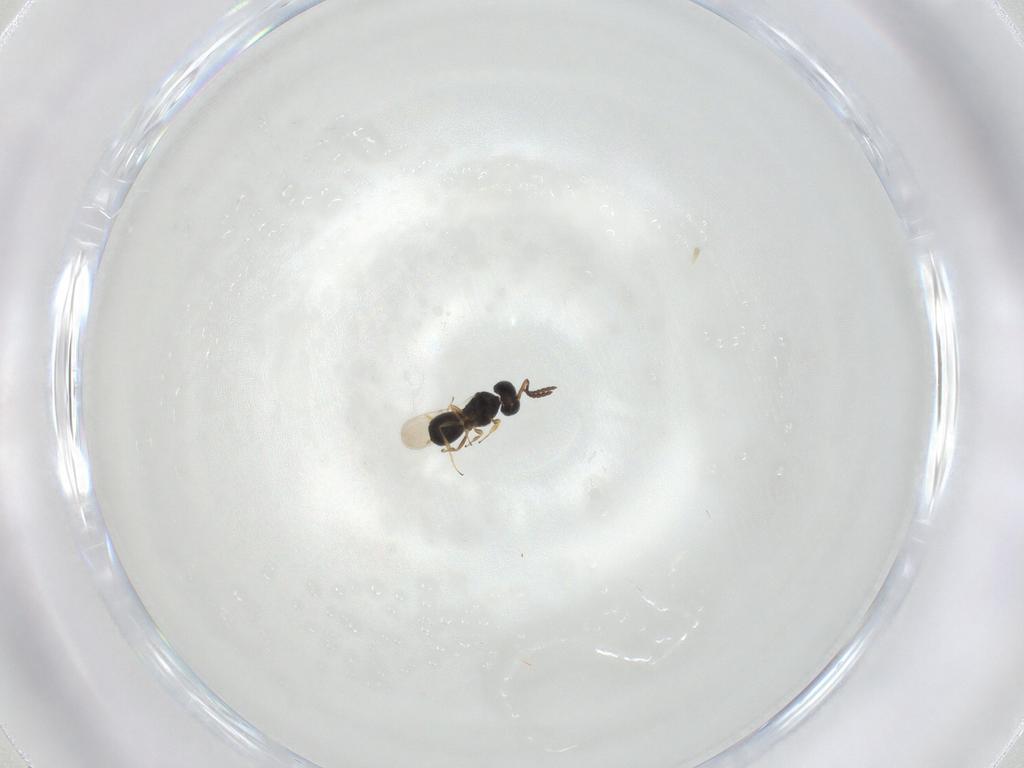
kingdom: Animalia
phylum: Arthropoda
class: Insecta
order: Hymenoptera
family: Scelionidae
